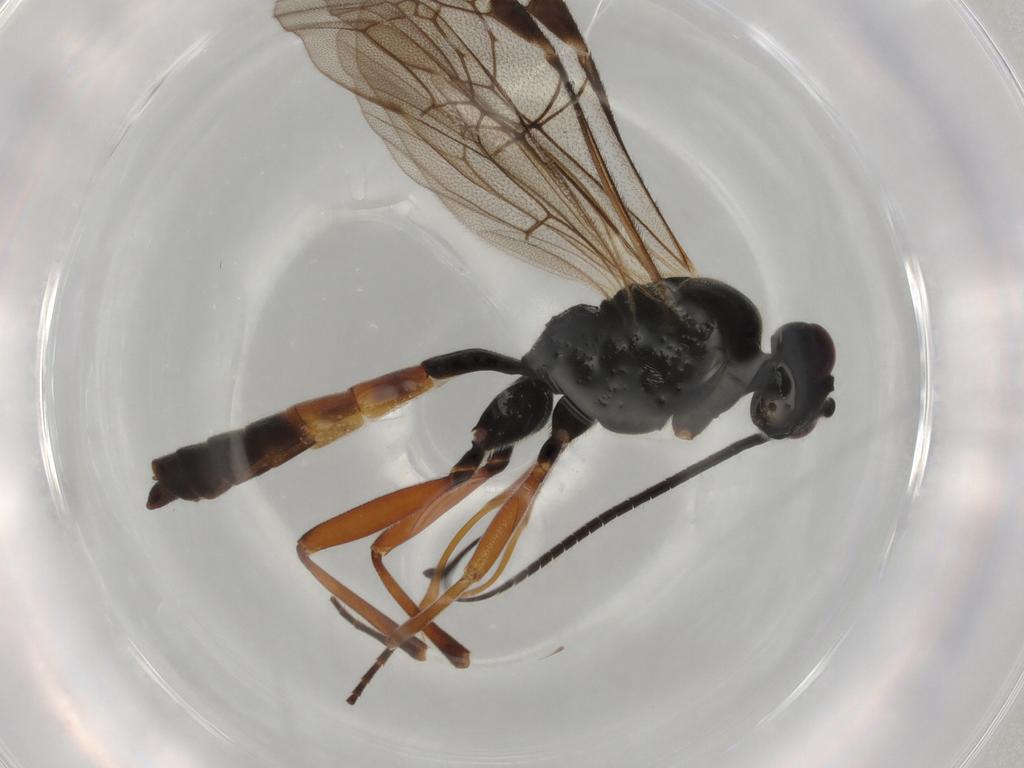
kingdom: Animalia
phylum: Arthropoda
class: Insecta
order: Hymenoptera
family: Formicidae
